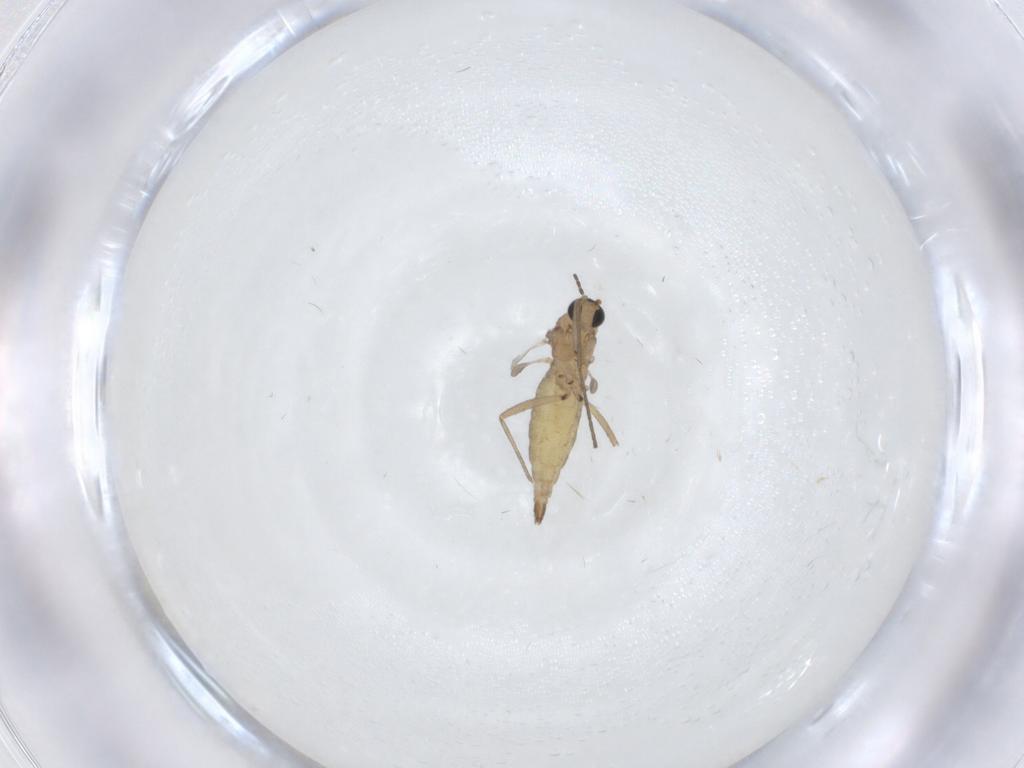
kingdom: Animalia
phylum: Arthropoda
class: Insecta
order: Diptera
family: Sciaridae
